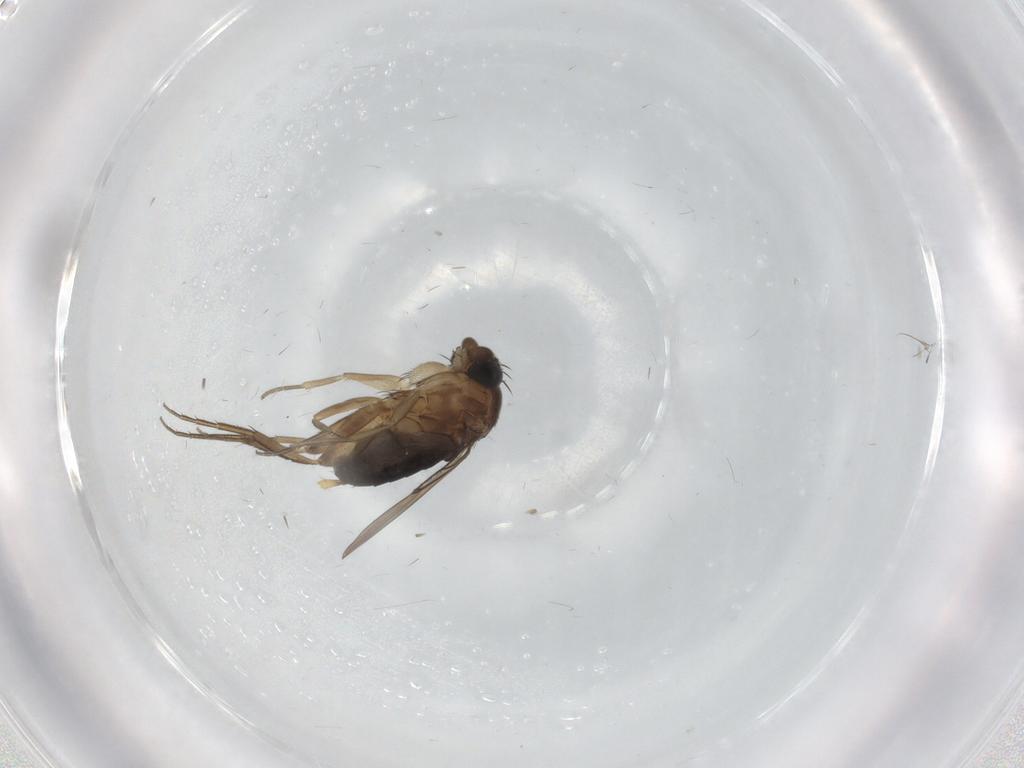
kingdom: Animalia
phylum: Arthropoda
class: Insecta
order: Diptera
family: Phoridae
